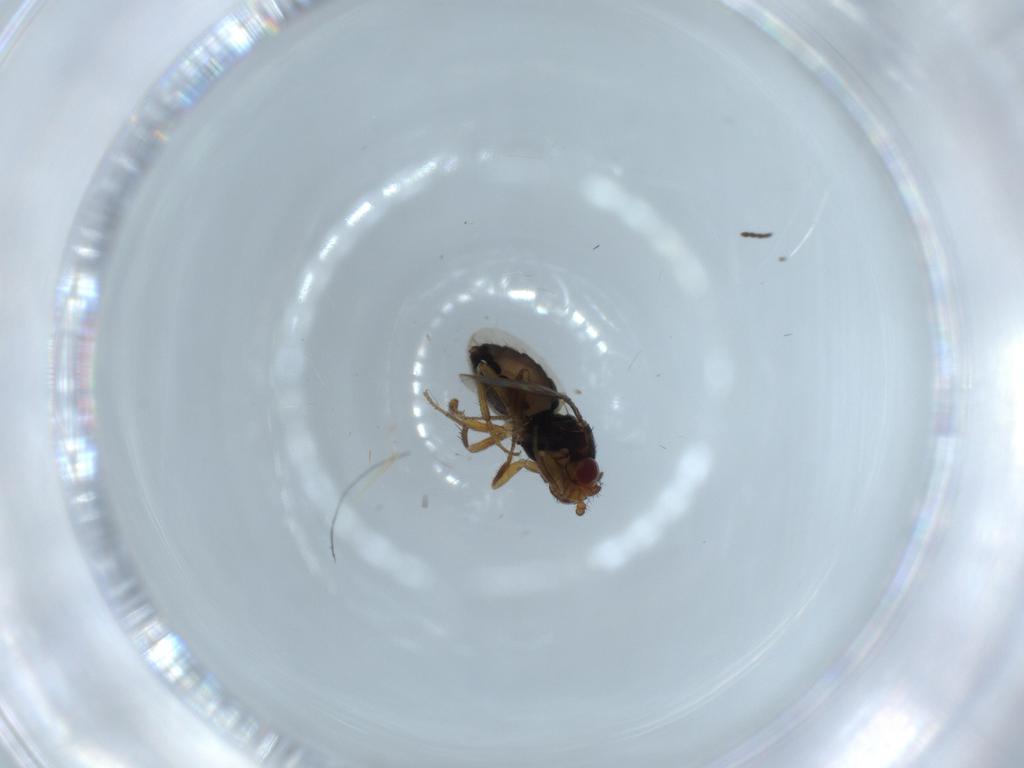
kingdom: Animalia
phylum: Arthropoda
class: Insecta
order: Diptera
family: Sphaeroceridae
